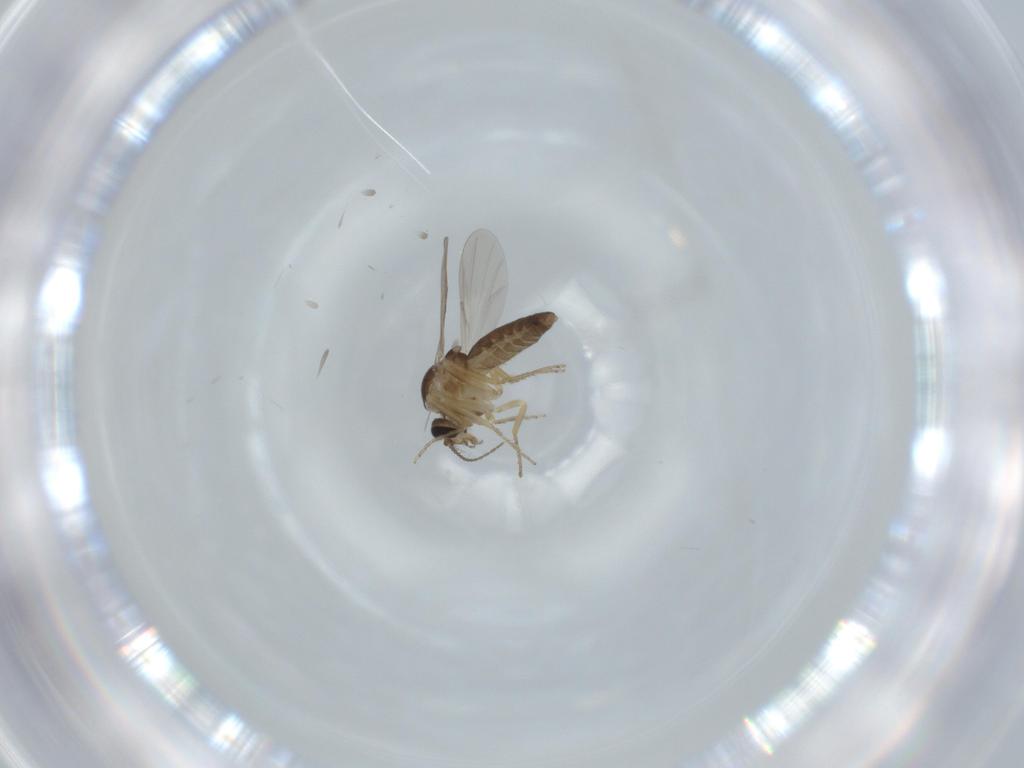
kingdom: Animalia
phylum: Arthropoda
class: Insecta
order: Diptera
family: Ceratopogonidae
